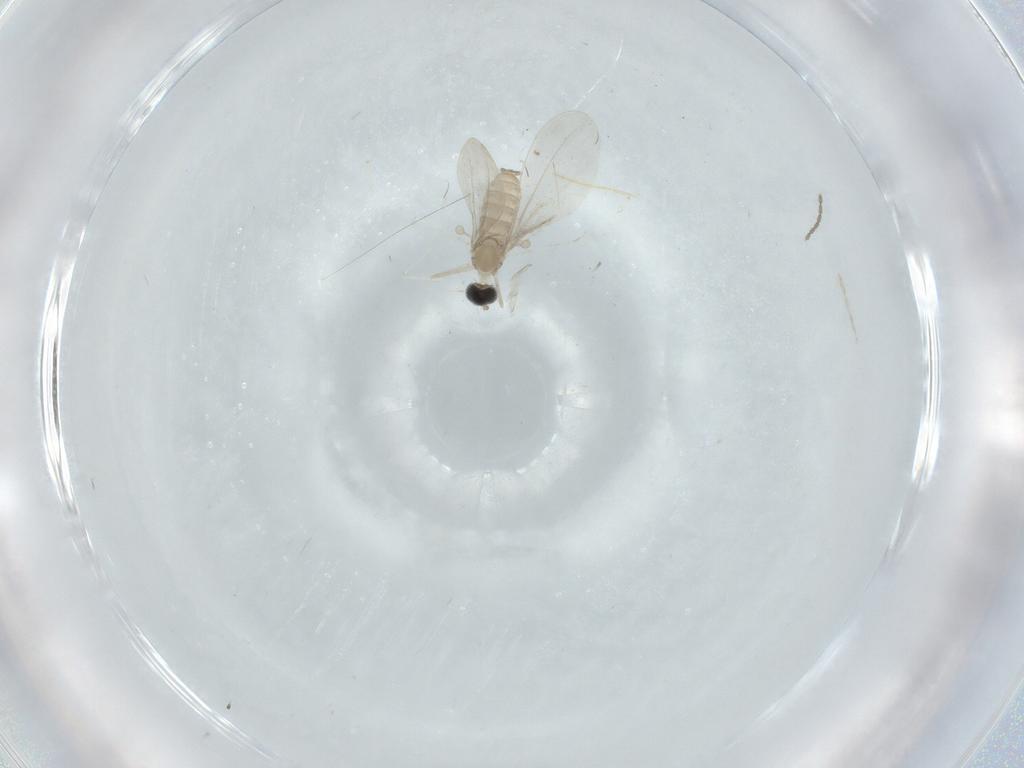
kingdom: Animalia
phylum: Arthropoda
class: Insecta
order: Diptera
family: Cecidomyiidae
